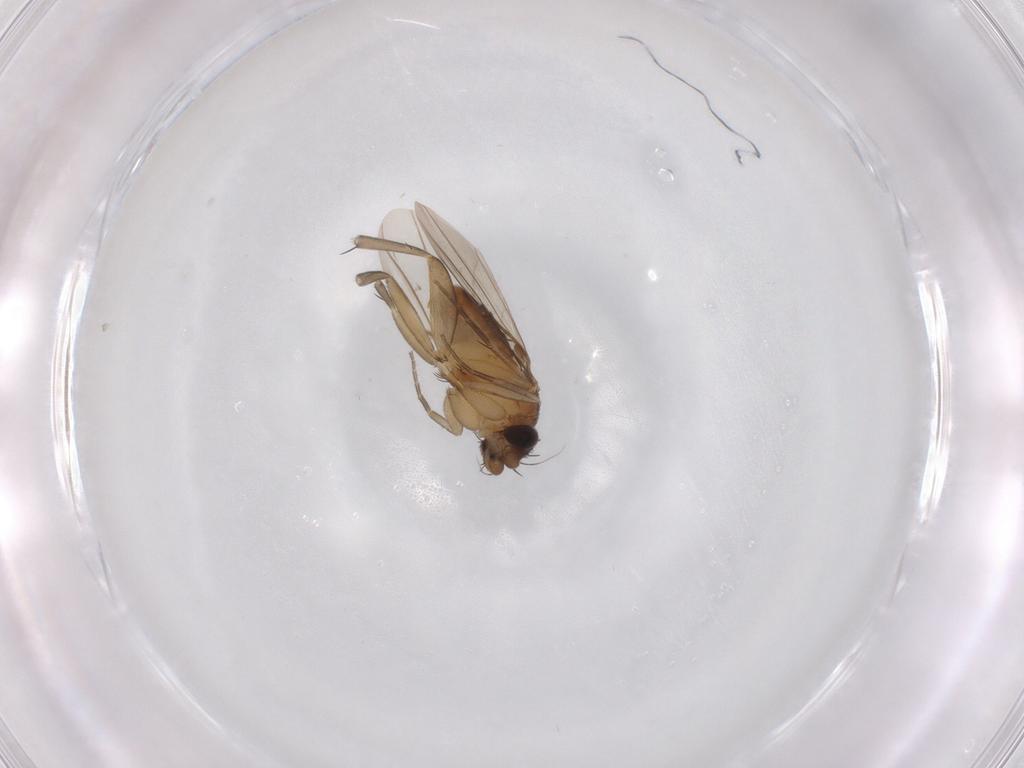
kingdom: Animalia
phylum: Arthropoda
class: Insecta
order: Diptera
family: Phoridae
